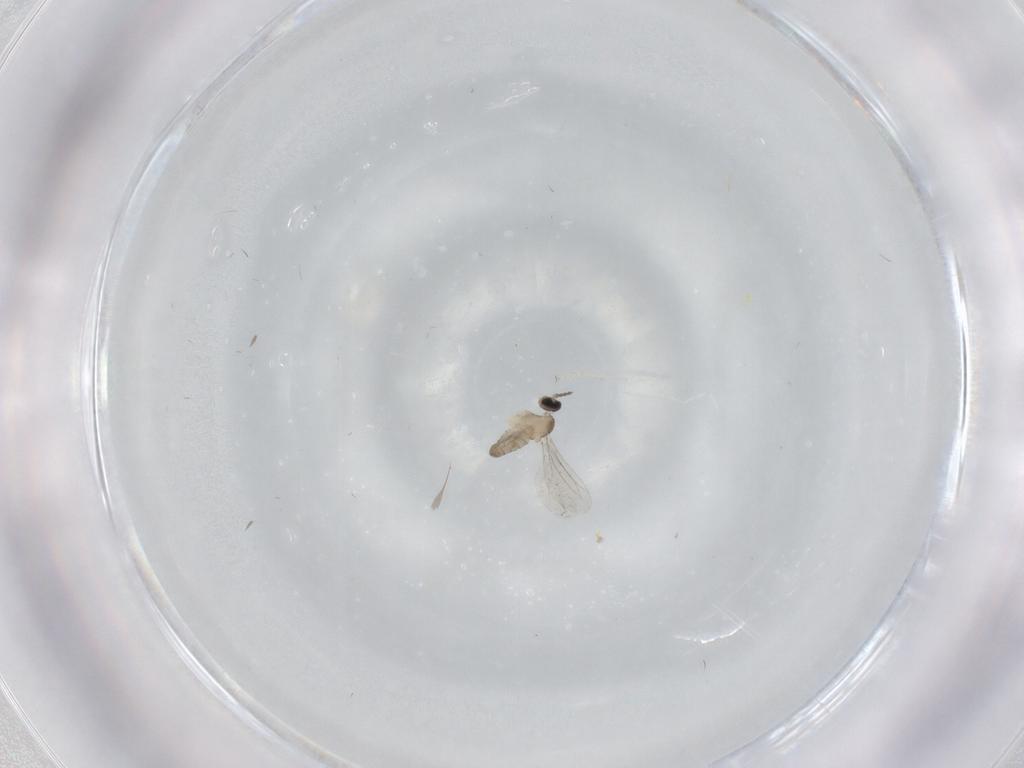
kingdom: Animalia
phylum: Arthropoda
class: Insecta
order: Diptera
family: Cecidomyiidae
